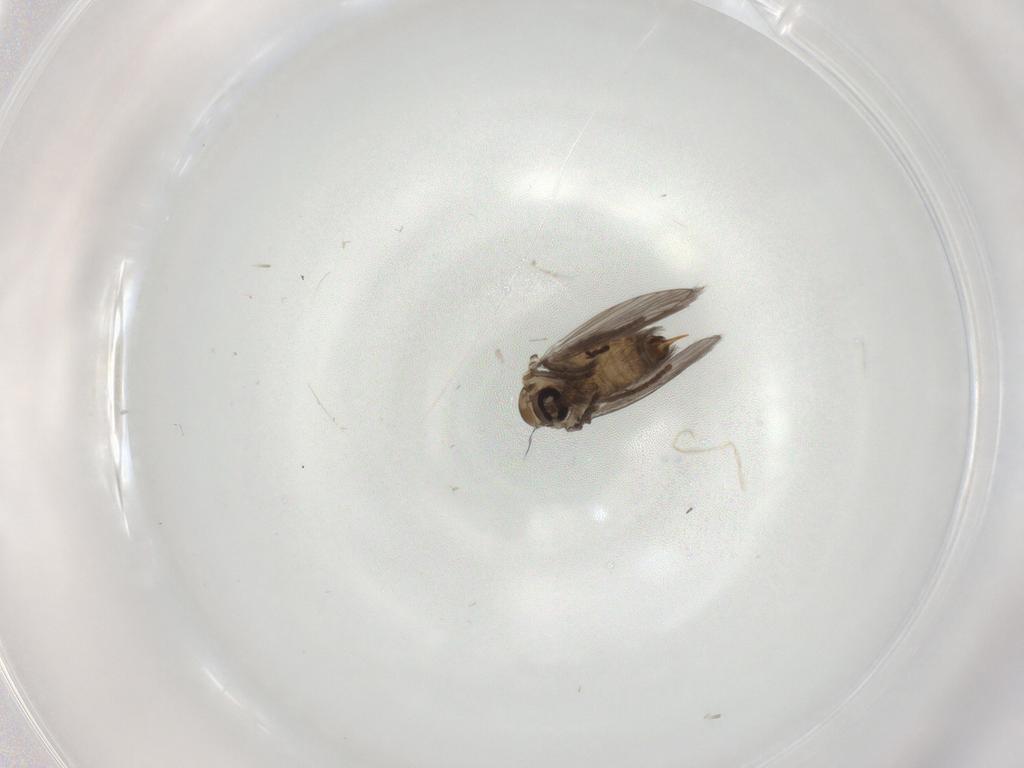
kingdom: Animalia
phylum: Arthropoda
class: Insecta
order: Diptera
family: Psychodidae
